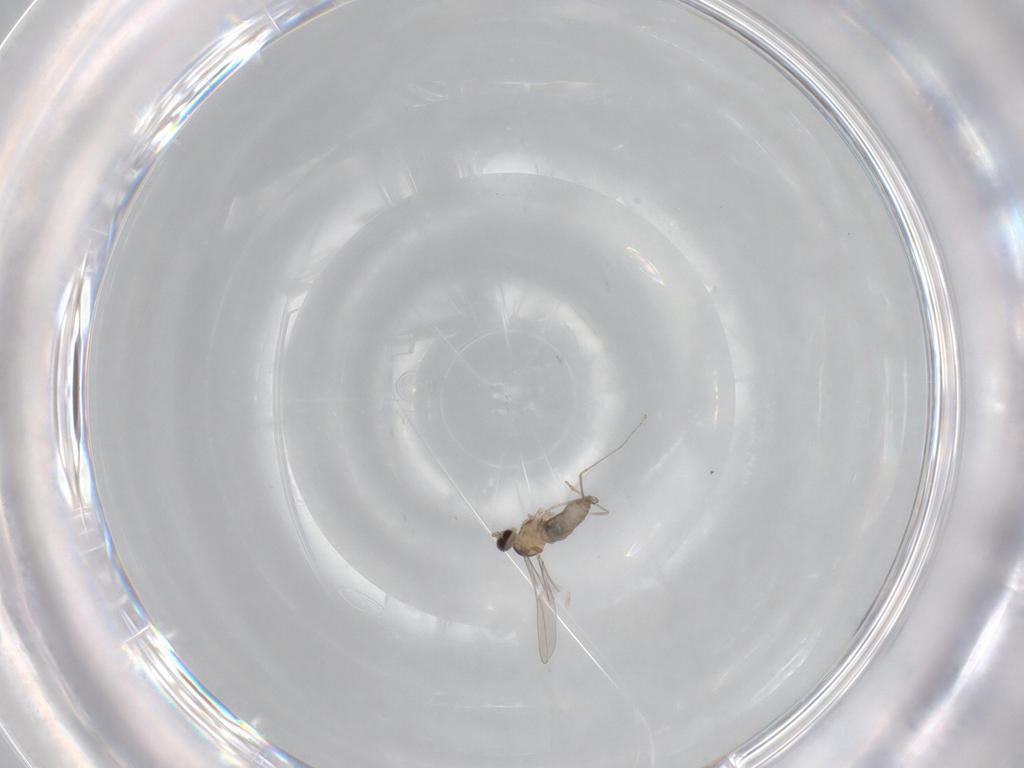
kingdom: Animalia
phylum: Arthropoda
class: Insecta
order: Diptera
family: Cecidomyiidae
